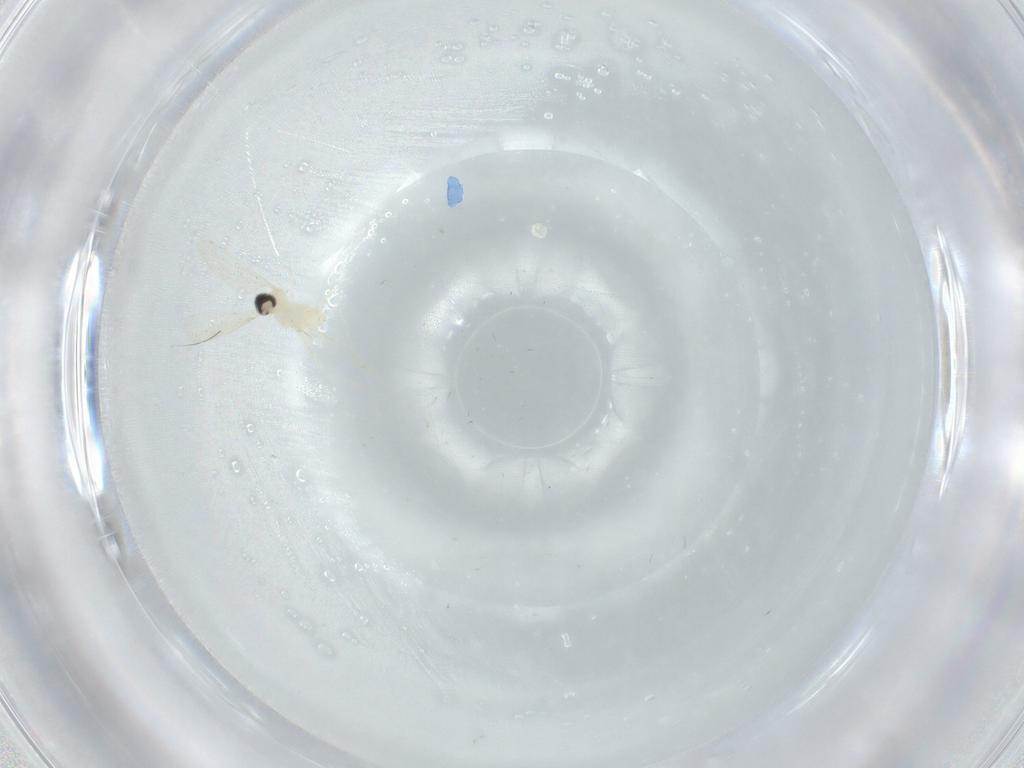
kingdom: Animalia
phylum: Arthropoda
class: Insecta
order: Diptera
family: Cecidomyiidae
